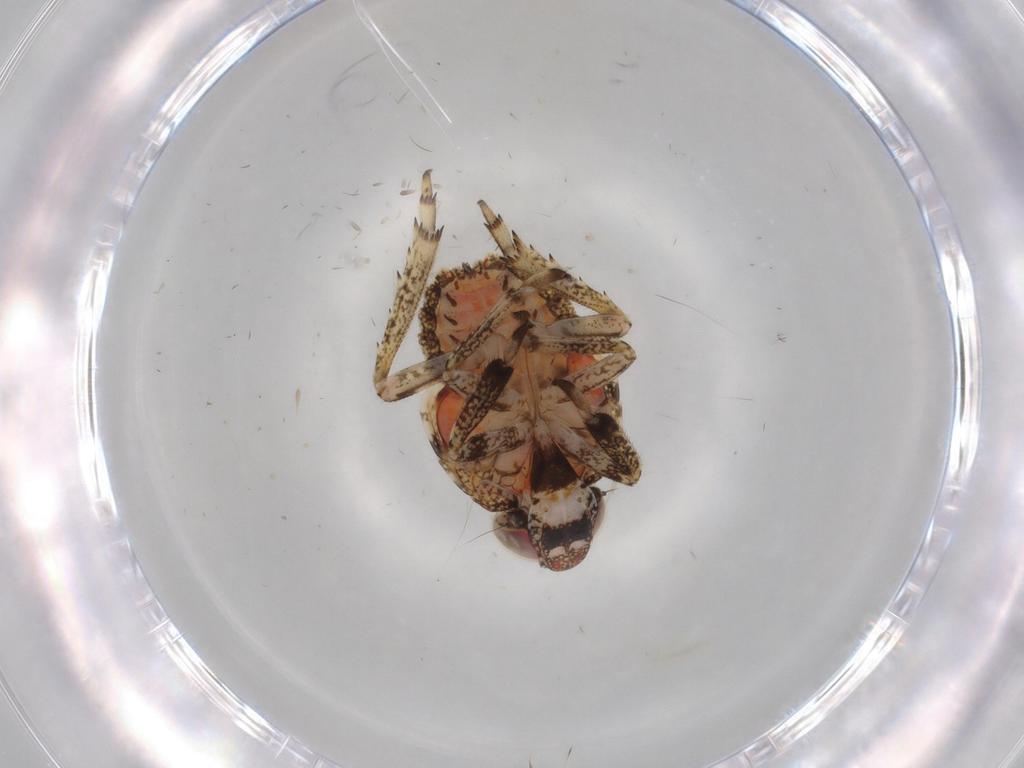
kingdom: Animalia
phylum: Arthropoda
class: Insecta
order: Hemiptera
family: Issidae
